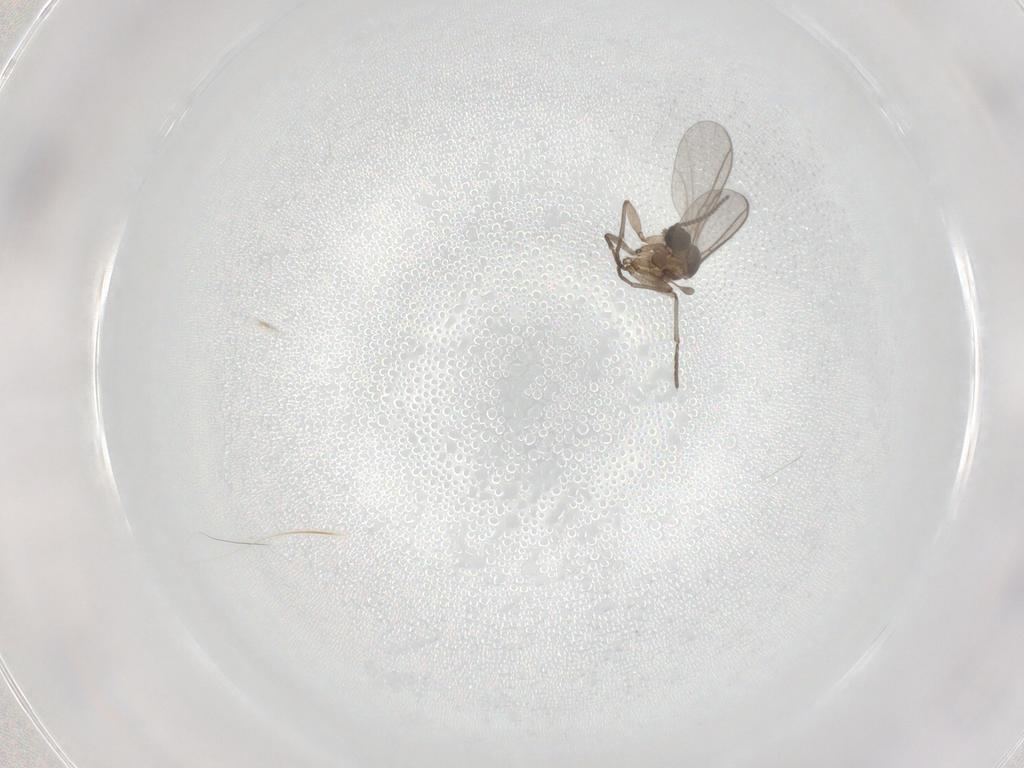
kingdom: Animalia
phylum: Arthropoda
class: Insecta
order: Diptera
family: Sciaridae
